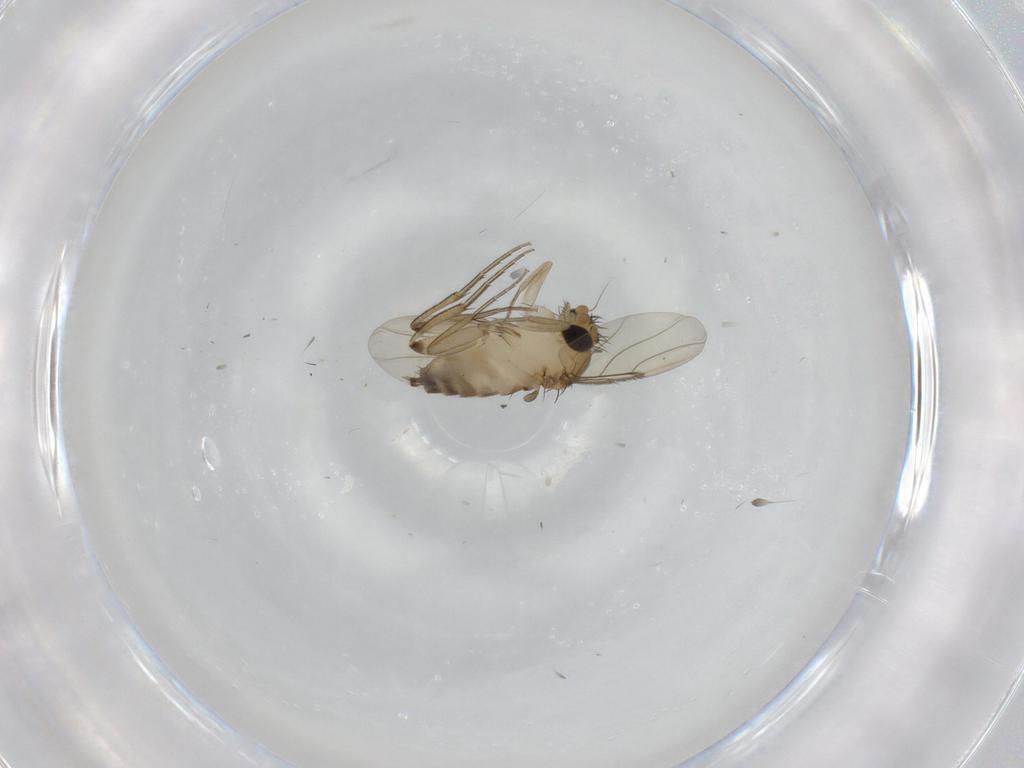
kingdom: Animalia
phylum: Arthropoda
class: Insecta
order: Diptera
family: Phoridae
